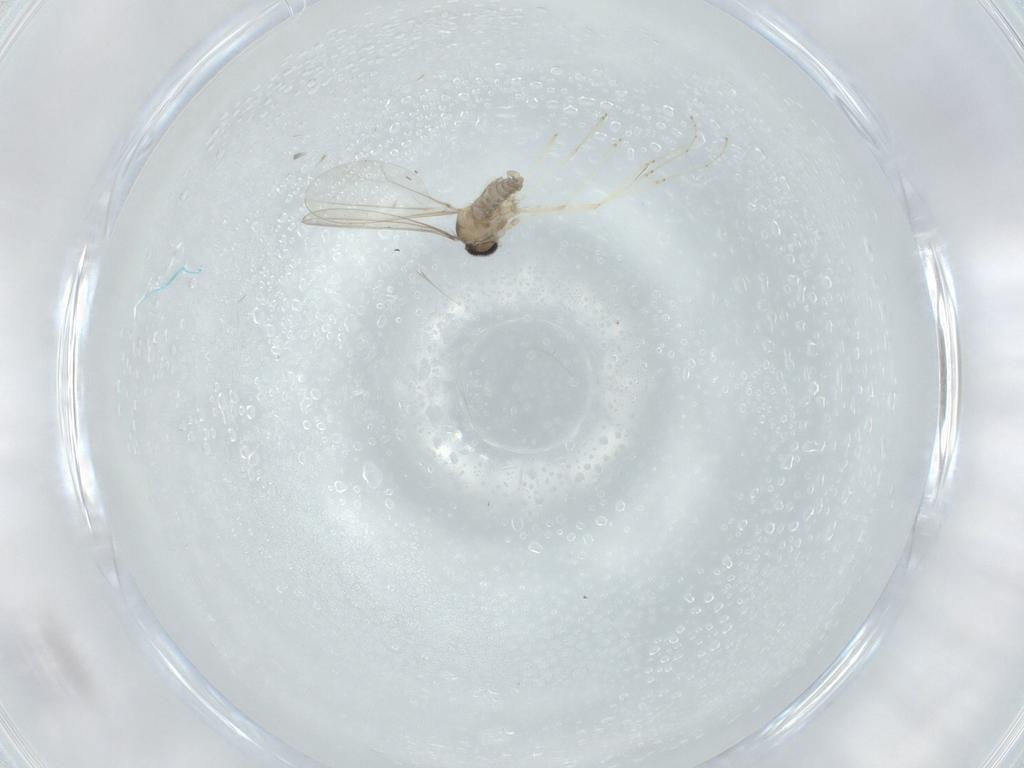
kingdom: Animalia
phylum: Arthropoda
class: Insecta
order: Diptera
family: Cecidomyiidae
